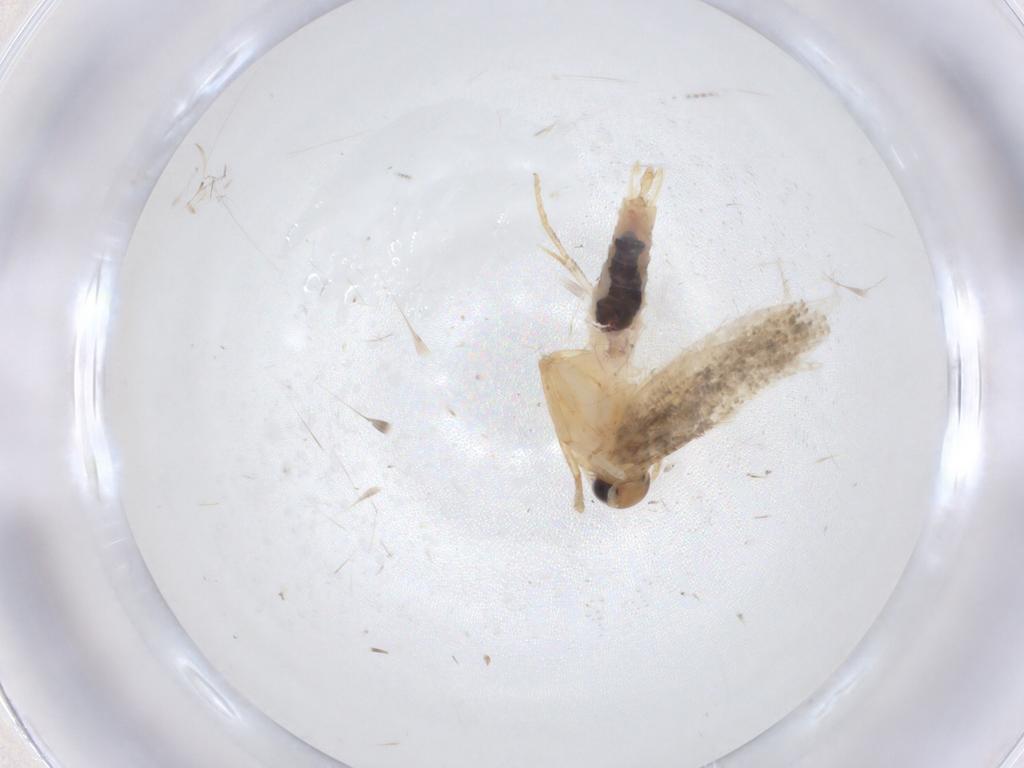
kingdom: Animalia
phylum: Arthropoda
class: Insecta
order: Lepidoptera
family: Gelechiidae
